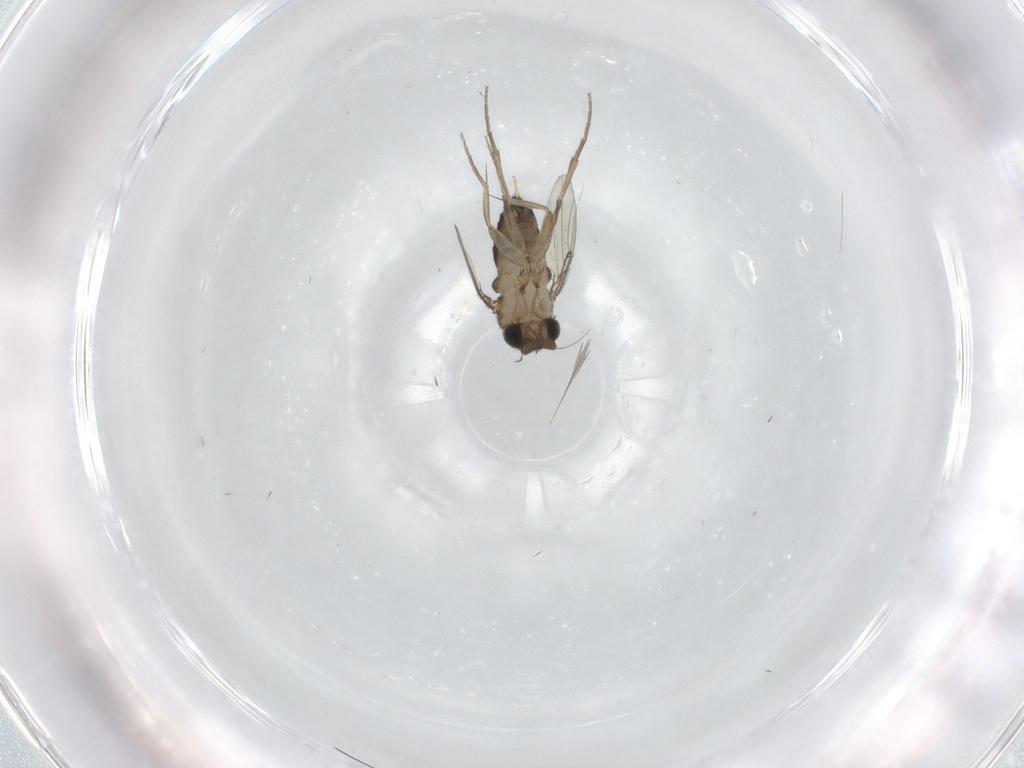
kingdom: Animalia
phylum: Arthropoda
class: Insecta
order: Diptera
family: Phoridae
